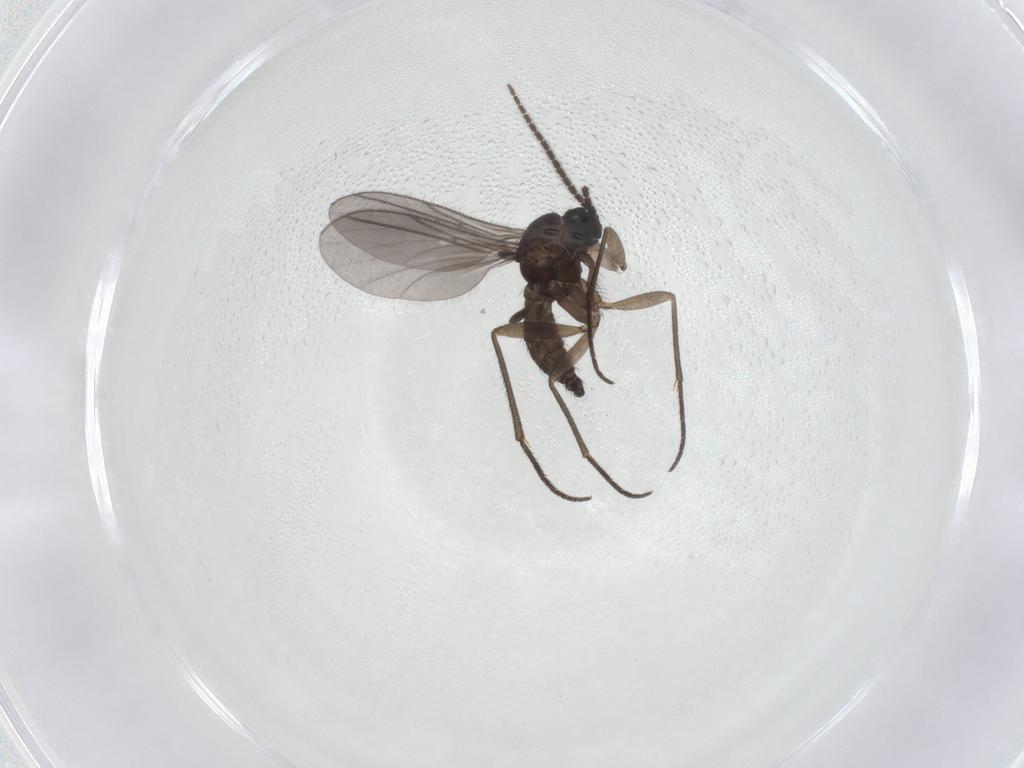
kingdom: Animalia
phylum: Arthropoda
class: Insecta
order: Diptera
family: Sciaridae
